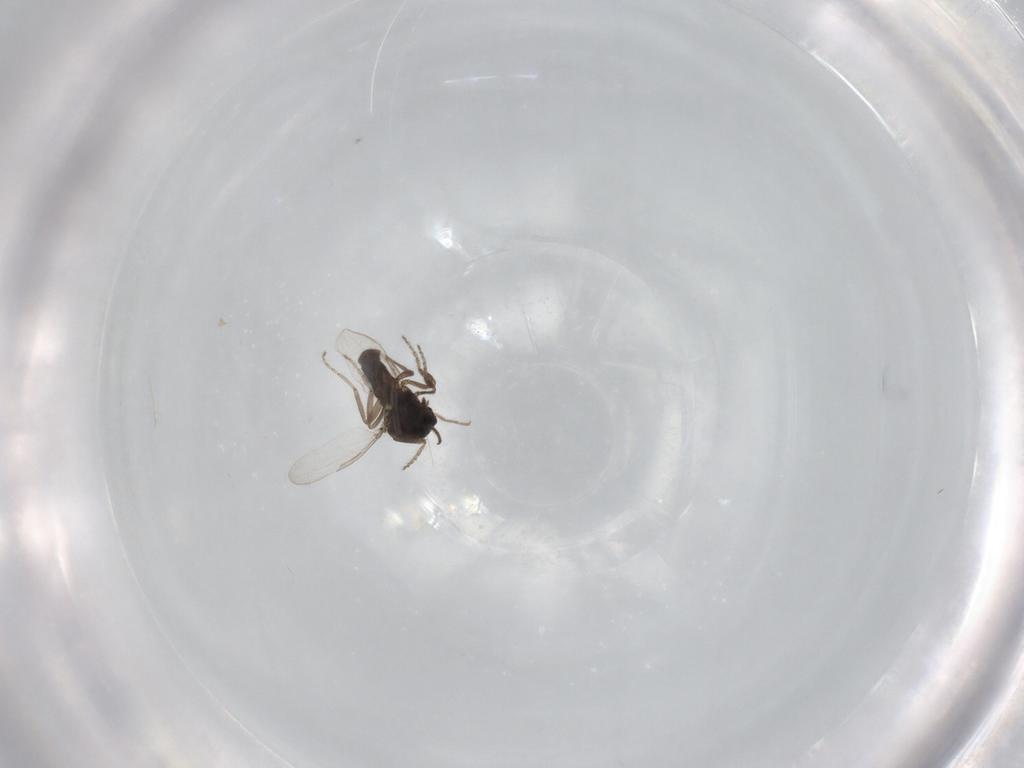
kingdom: Animalia
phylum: Arthropoda
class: Insecta
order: Diptera
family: Ceratopogonidae
